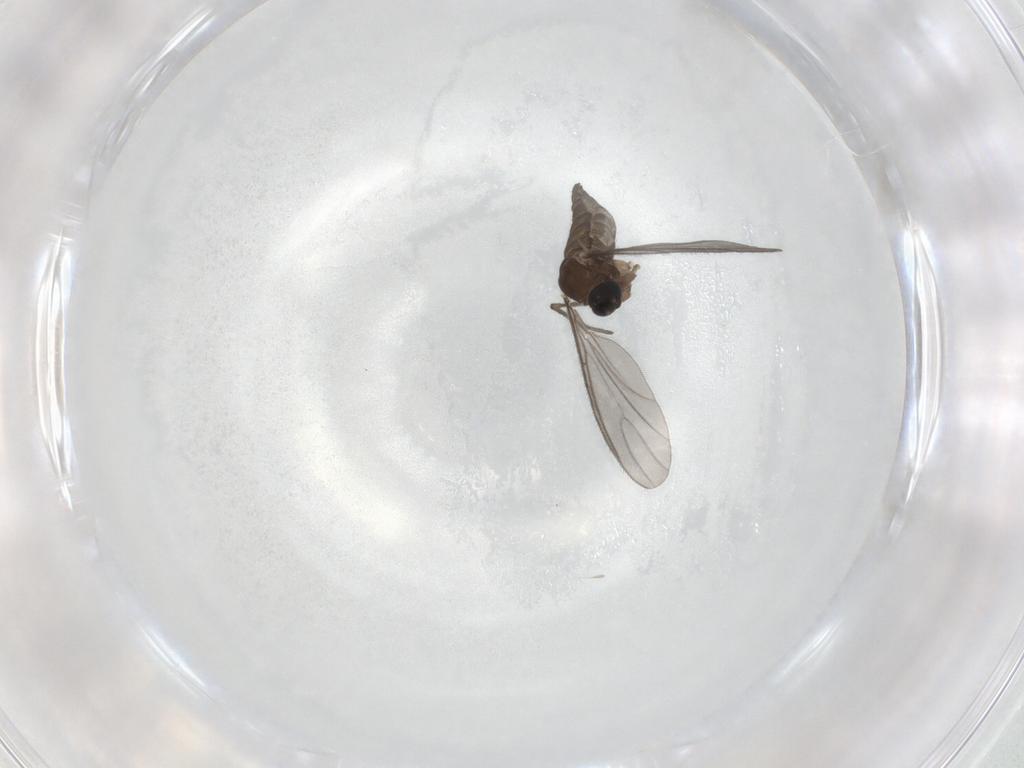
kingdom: Animalia
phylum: Arthropoda
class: Insecta
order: Diptera
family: Sciaridae
